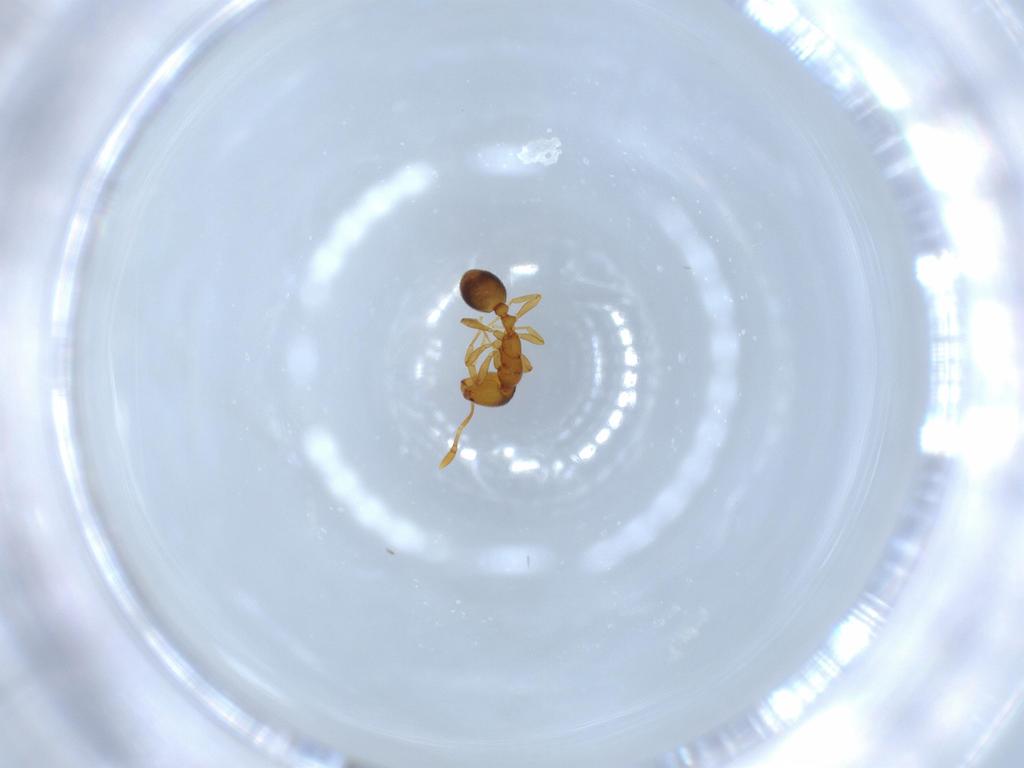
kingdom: Animalia
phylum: Arthropoda
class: Insecta
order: Hymenoptera
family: Formicidae
